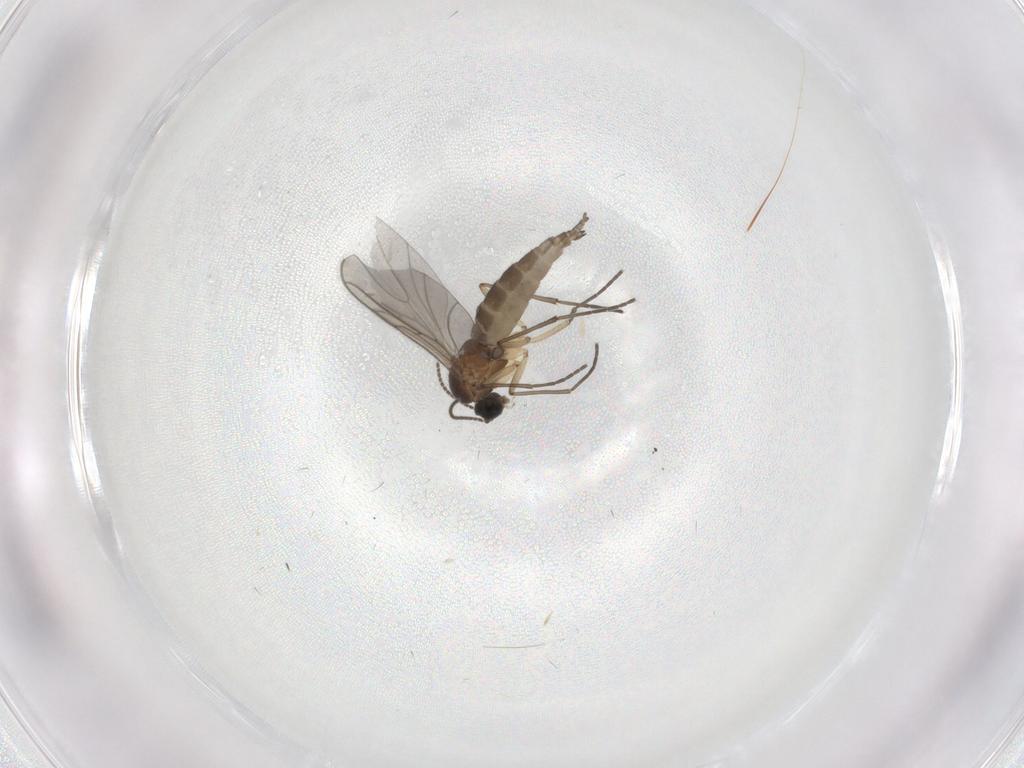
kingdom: Animalia
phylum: Arthropoda
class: Insecta
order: Diptera
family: Sciaridae
